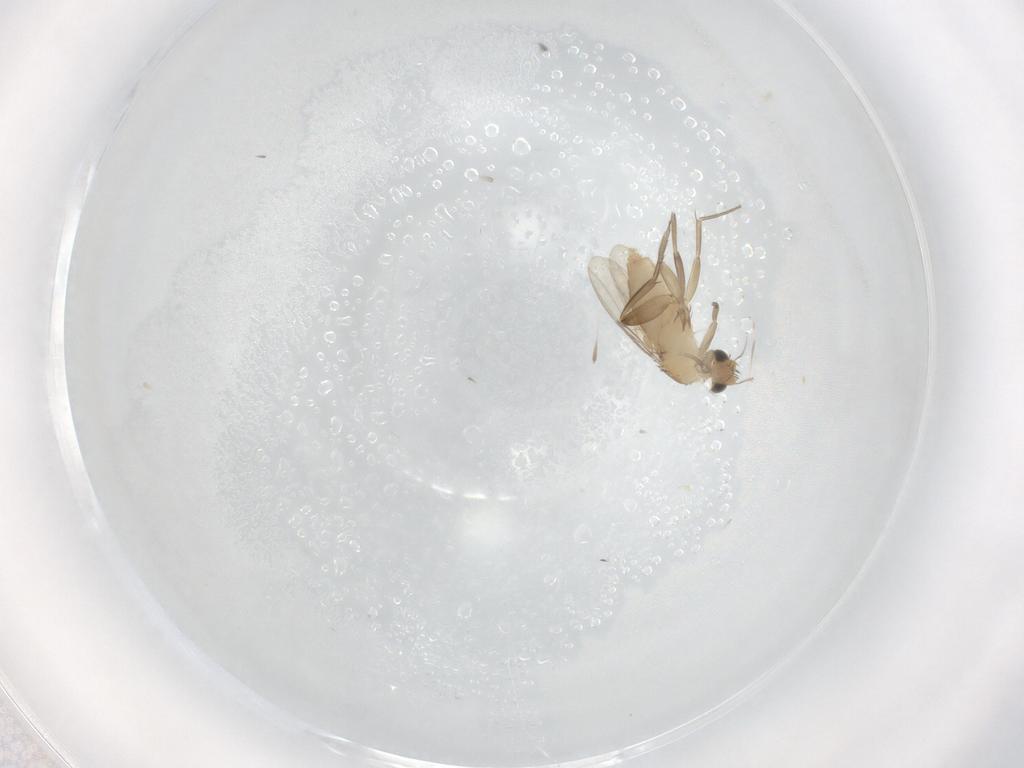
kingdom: Animalia
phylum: Arthropoda
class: Insecta
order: Diptera
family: Phoridae
